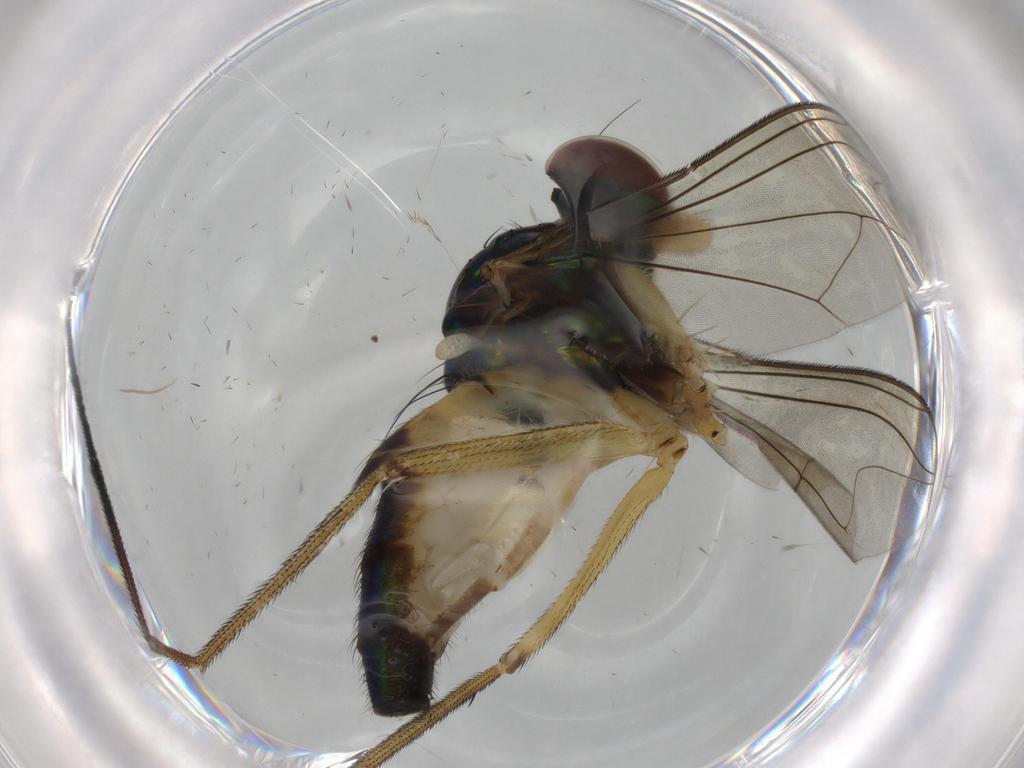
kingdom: Animalia
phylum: Arthropoda
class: Insecta
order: Diptera
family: Dolichopodidae
